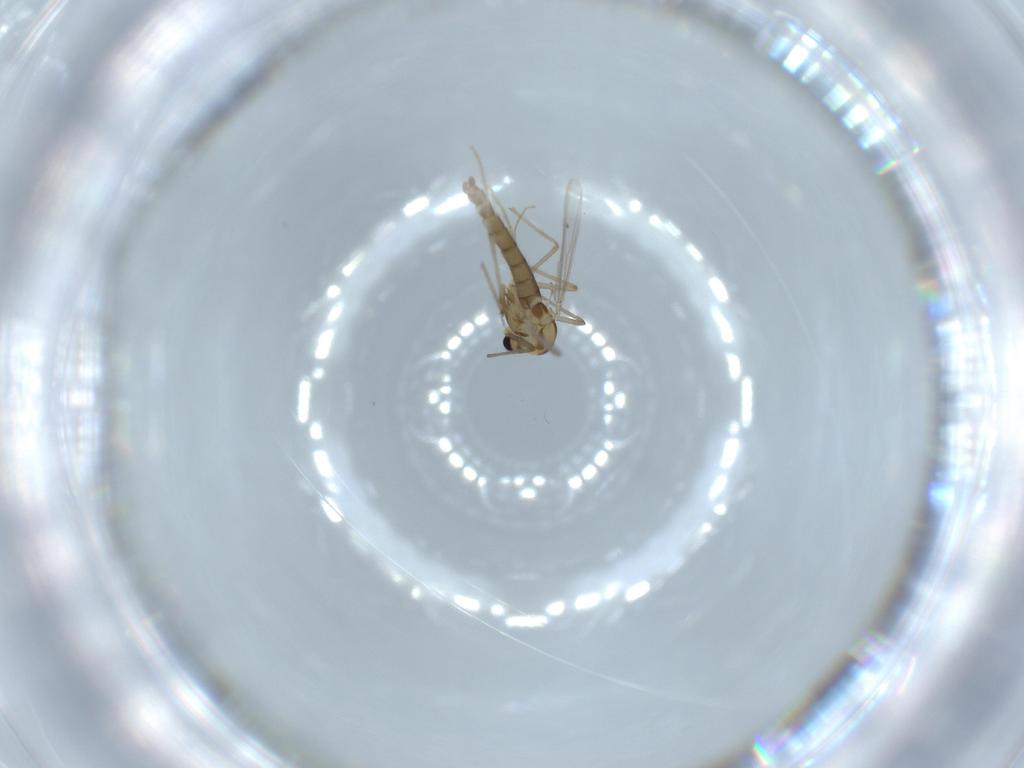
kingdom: Animalia
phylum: Arthropoda
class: Insecta
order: Diptera
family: Chironomidae
